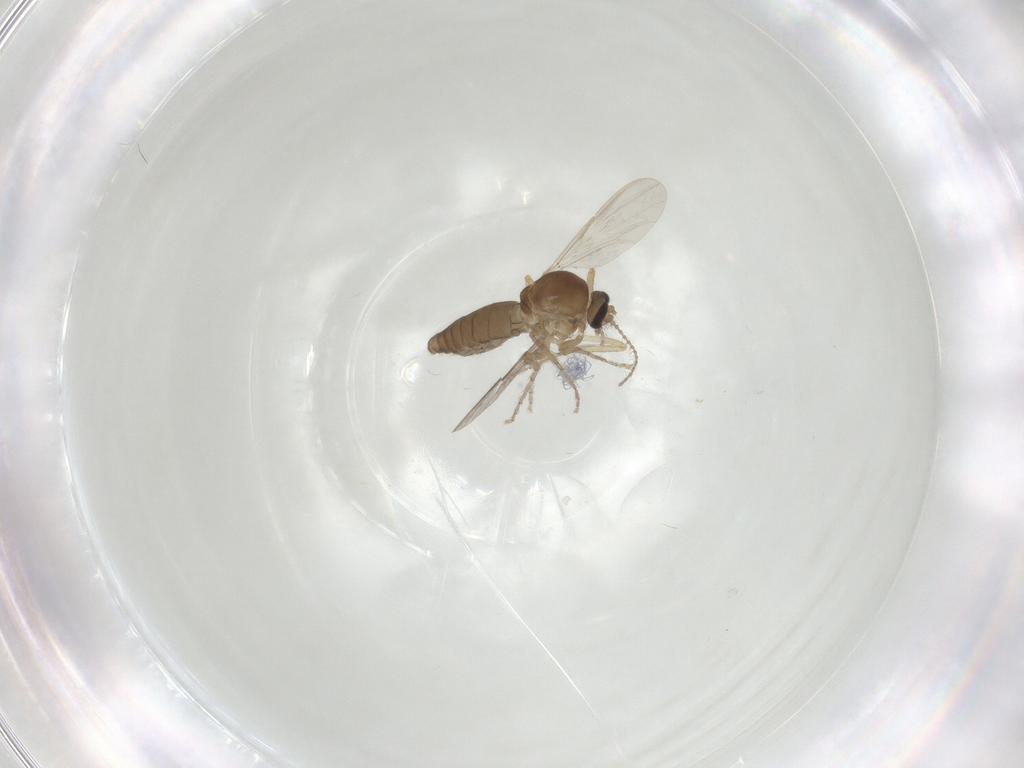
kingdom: Animalia
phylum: Arthropoda
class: Insecta
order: Diptera
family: Chironomidae
